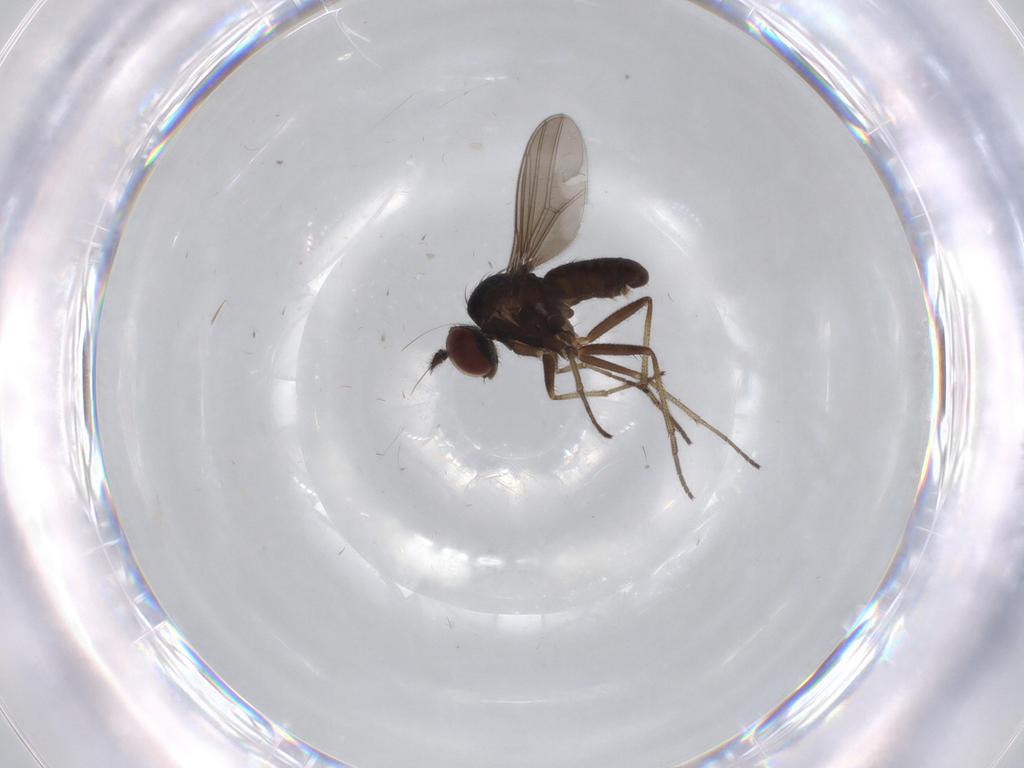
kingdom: Animalia
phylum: Arthropoda
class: Insecta
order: Diptera
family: Dolichopodidae
